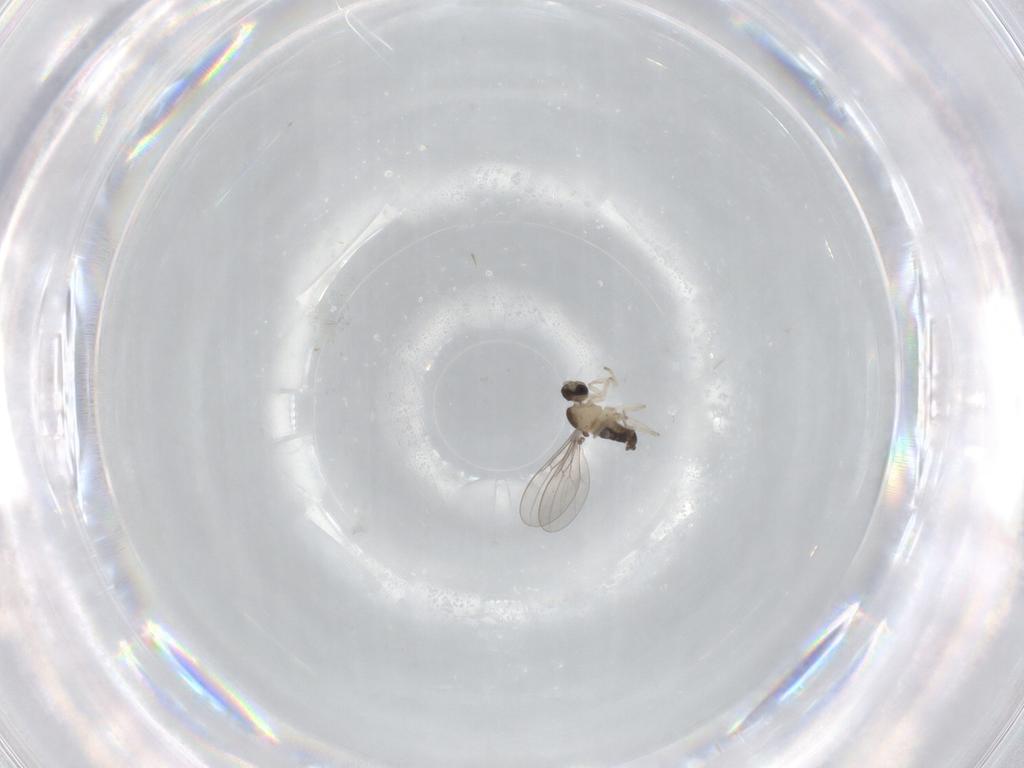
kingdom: Animalia
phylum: Arthropoda
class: Insecta
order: Diptera
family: Cecidomyiidae
